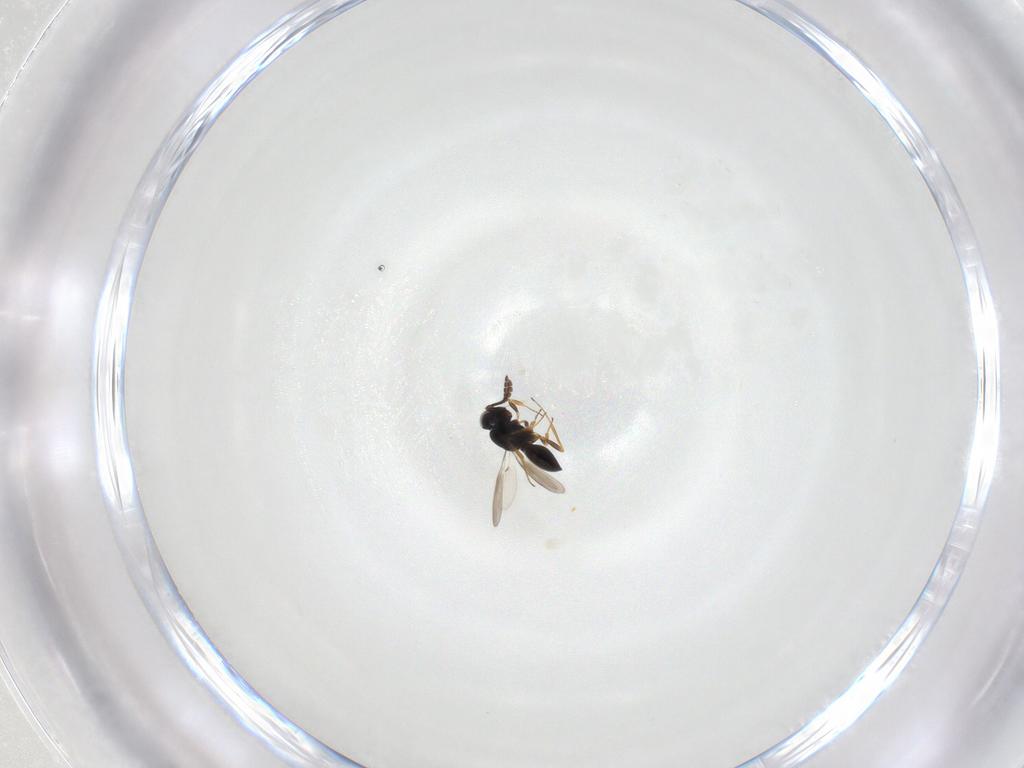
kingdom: Animalia
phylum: Arthropoda
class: Insecta
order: Hymenoptera
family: Scelionidae
